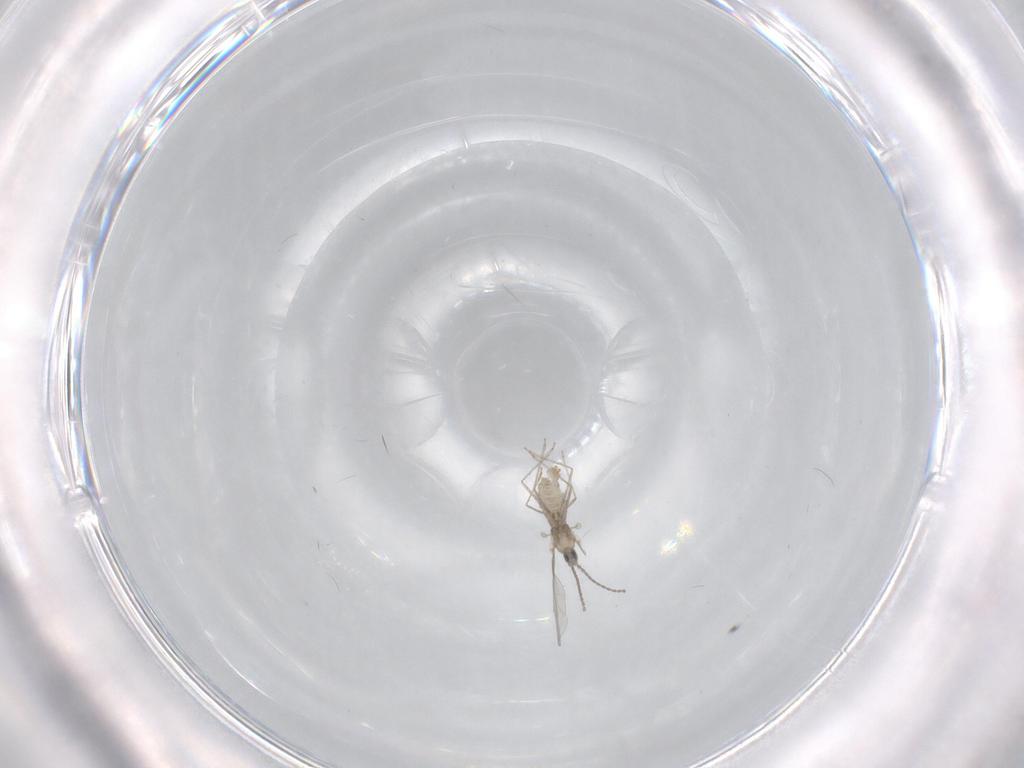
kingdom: Animalia
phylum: Arthropoda
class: Insecta
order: Diptera
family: Cecidomyiidae
